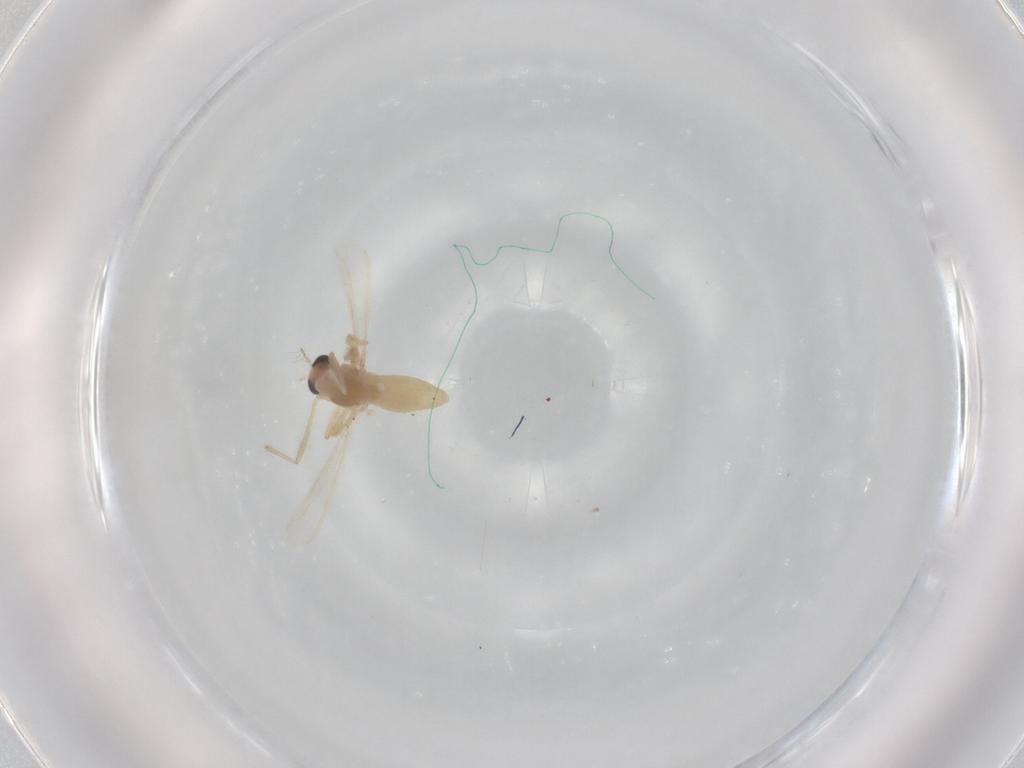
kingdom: Animalia
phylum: Arthropoda
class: Insecta
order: Diptera
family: Chironomidae
